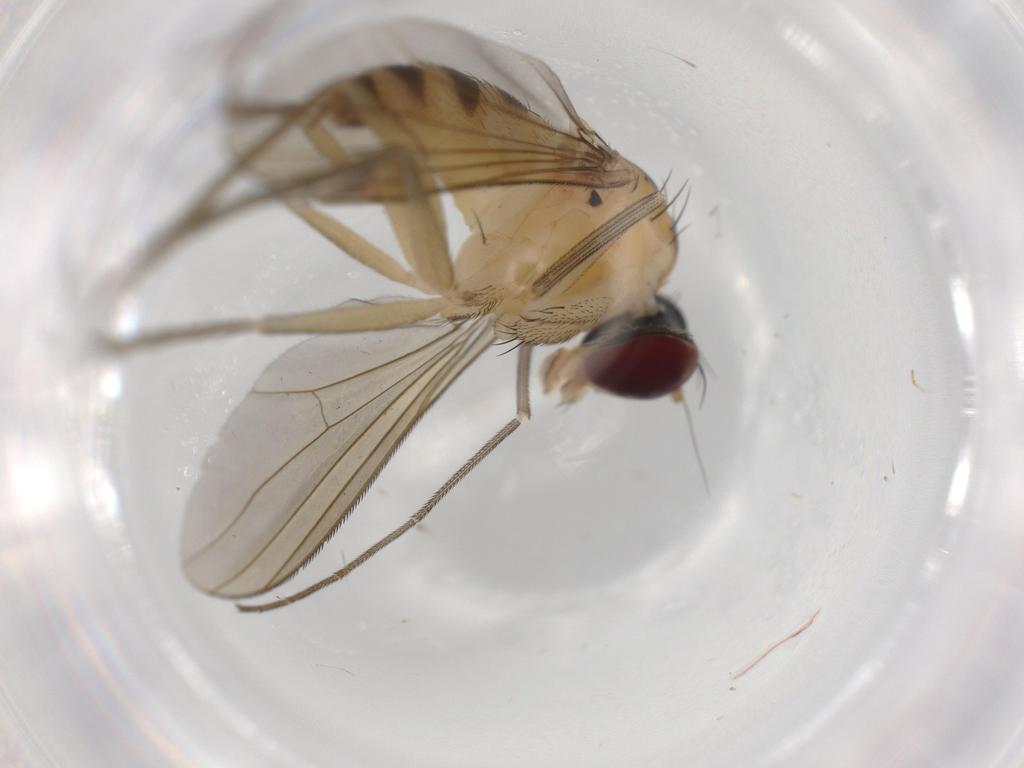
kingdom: Animalia
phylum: Arthropoda
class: Insecta
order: Diptera
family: Dolichopodidae
